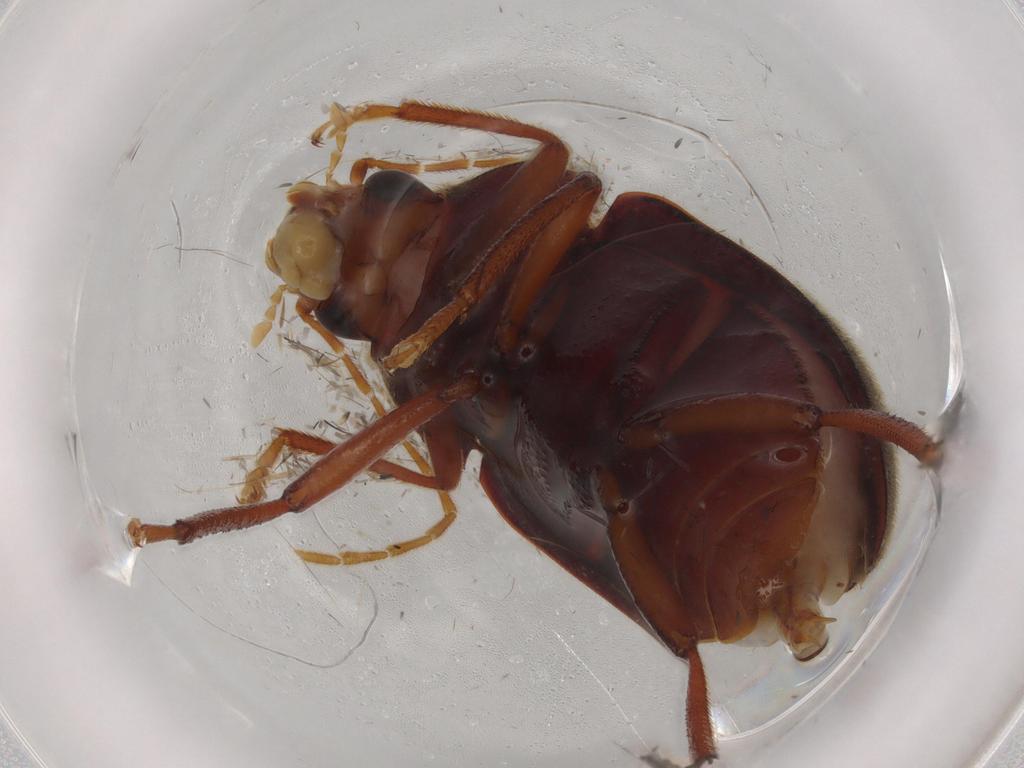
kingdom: Animalia
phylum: Arthropoda
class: Insecta
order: Coleoptera
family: Ptilodactylidae
